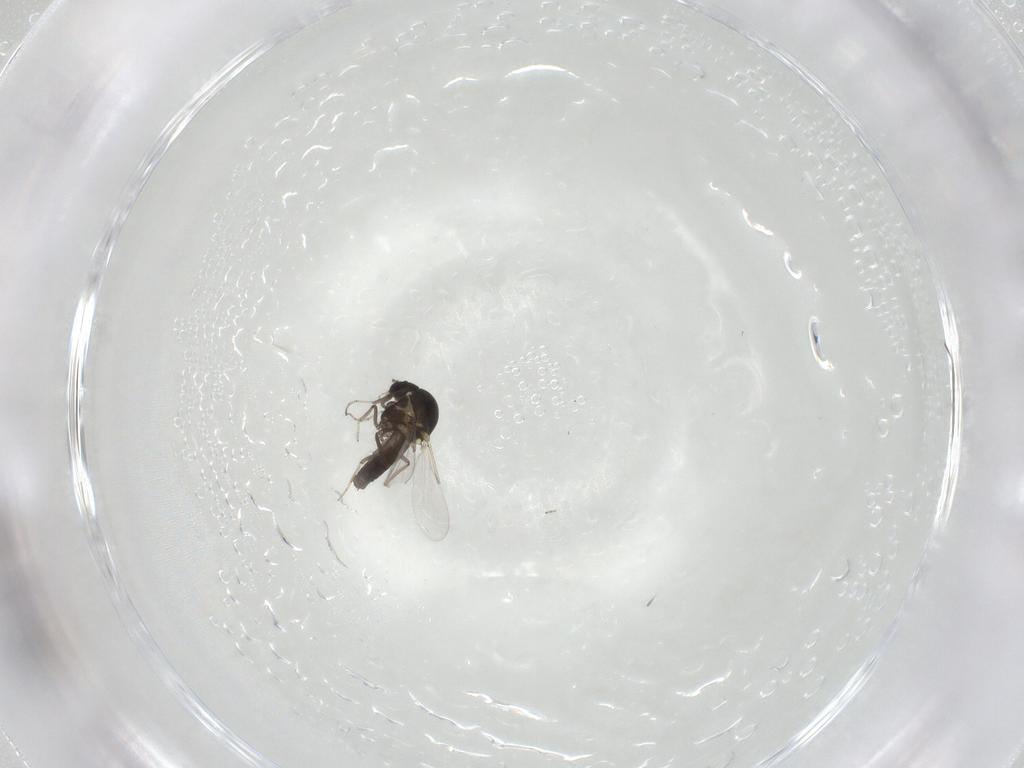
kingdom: Animalia
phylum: Arthropoda
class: Insecta
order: Diptera
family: Ceratopogonidae
